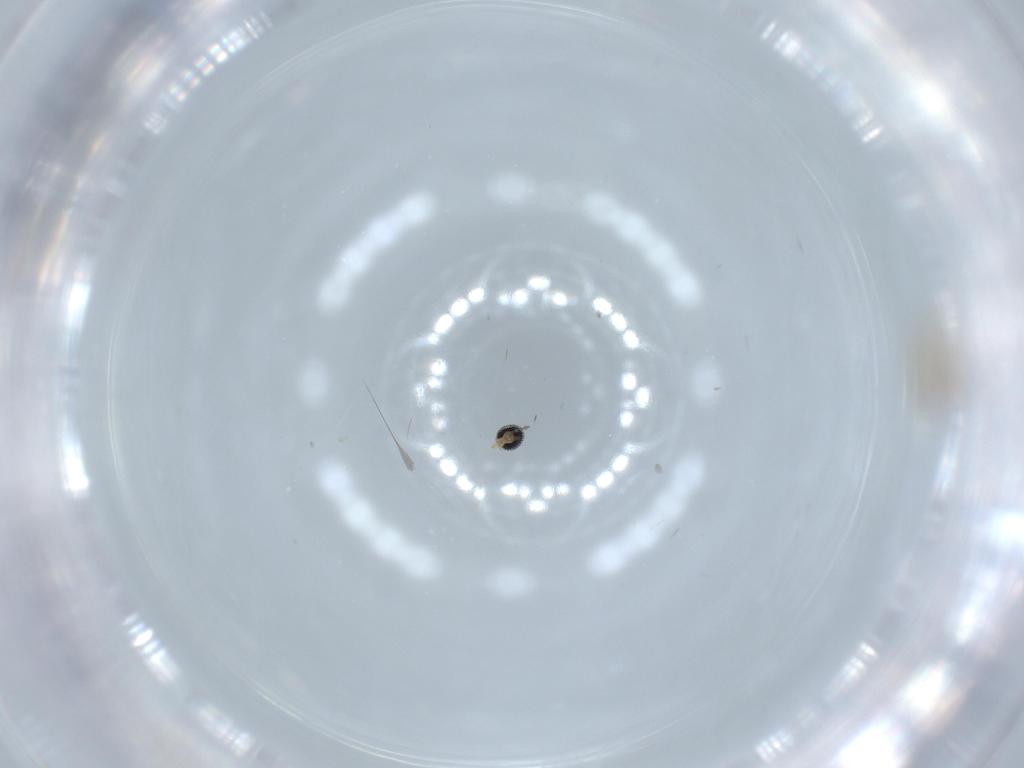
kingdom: Animalia
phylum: Arthropoda
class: Insecta
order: Diptera
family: Cecidomyiidae
